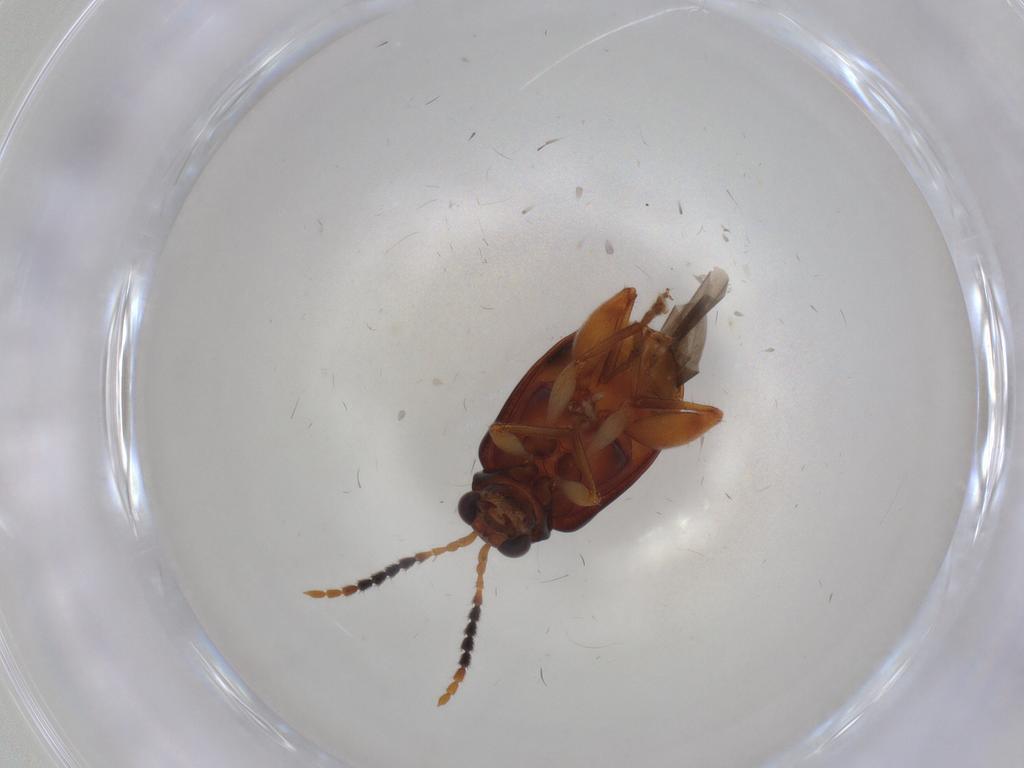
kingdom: Animalia
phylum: Arthropoda
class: Insecta
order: Coleoptera
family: Chrysomelidae
